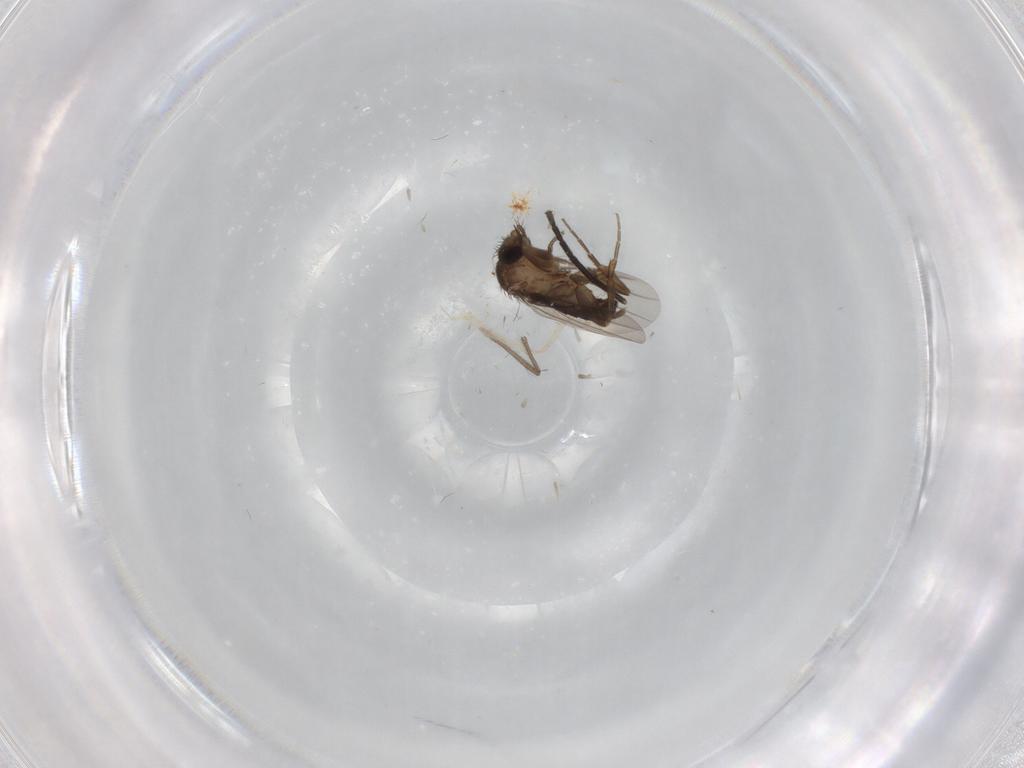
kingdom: Animalia
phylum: Arthropoda
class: Insecta
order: Diptera
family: Sciaridae
